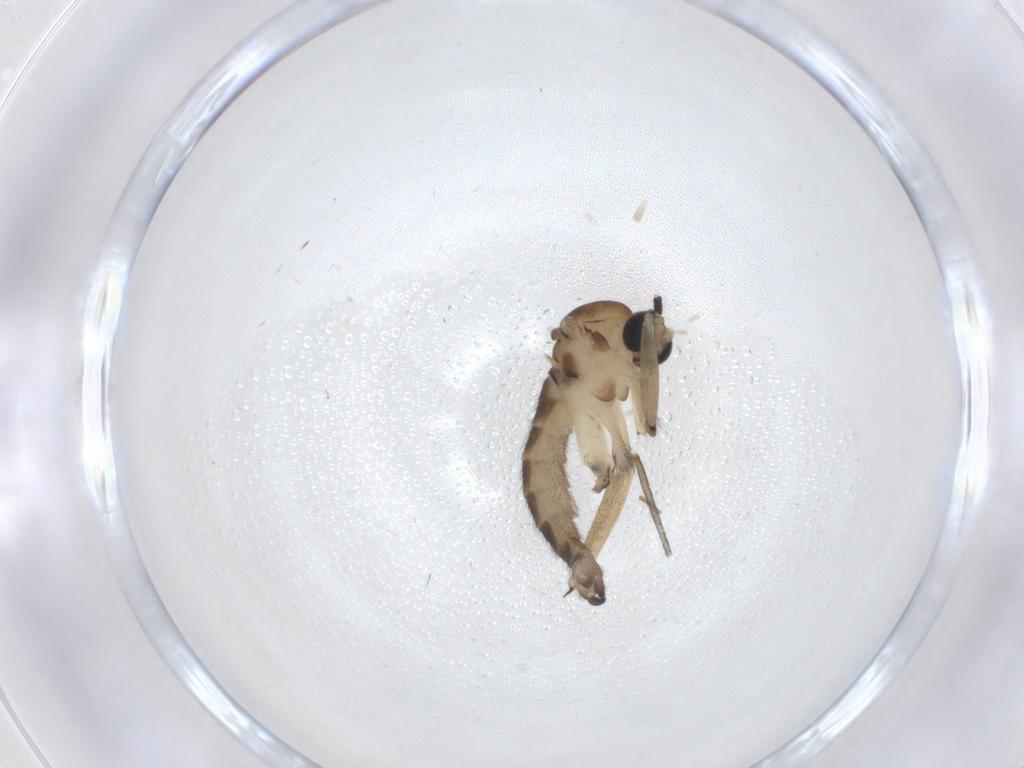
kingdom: Animalia
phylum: Arthropoda
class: Insecta
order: Diptera
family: Sciaridae
